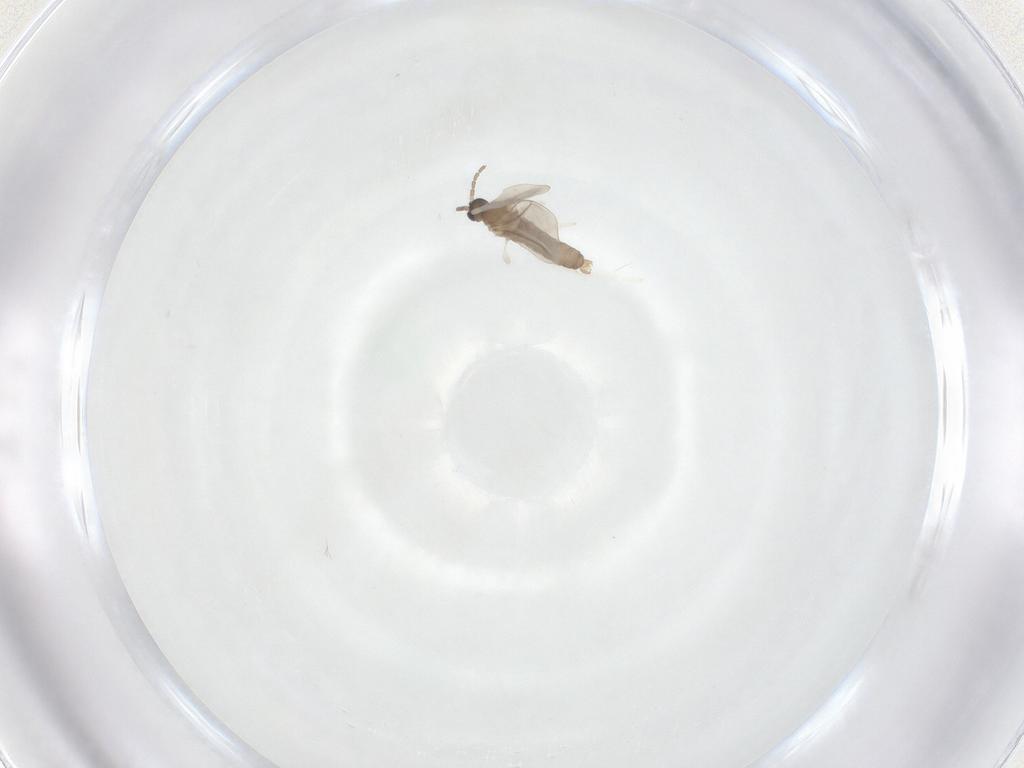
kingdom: Animalia
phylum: Arthropoda
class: Insecta
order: Diptera
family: Cecidomyiidae
